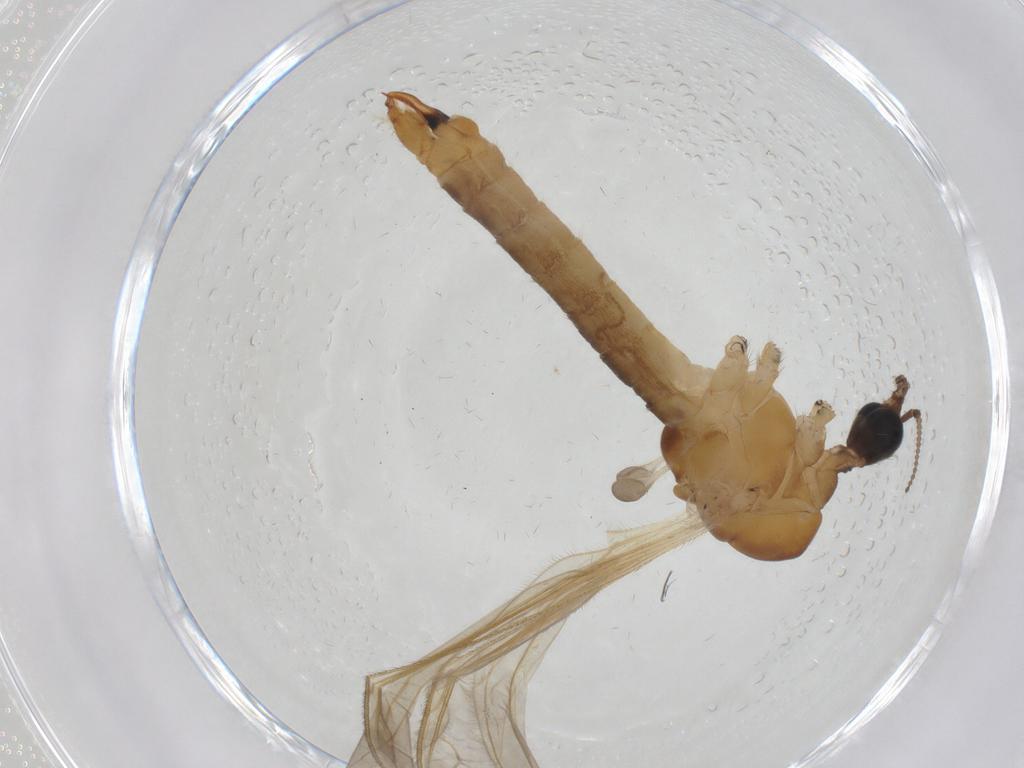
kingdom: Animalia
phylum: Arthropoda
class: Insecta
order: Diptera
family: Limoniidae
